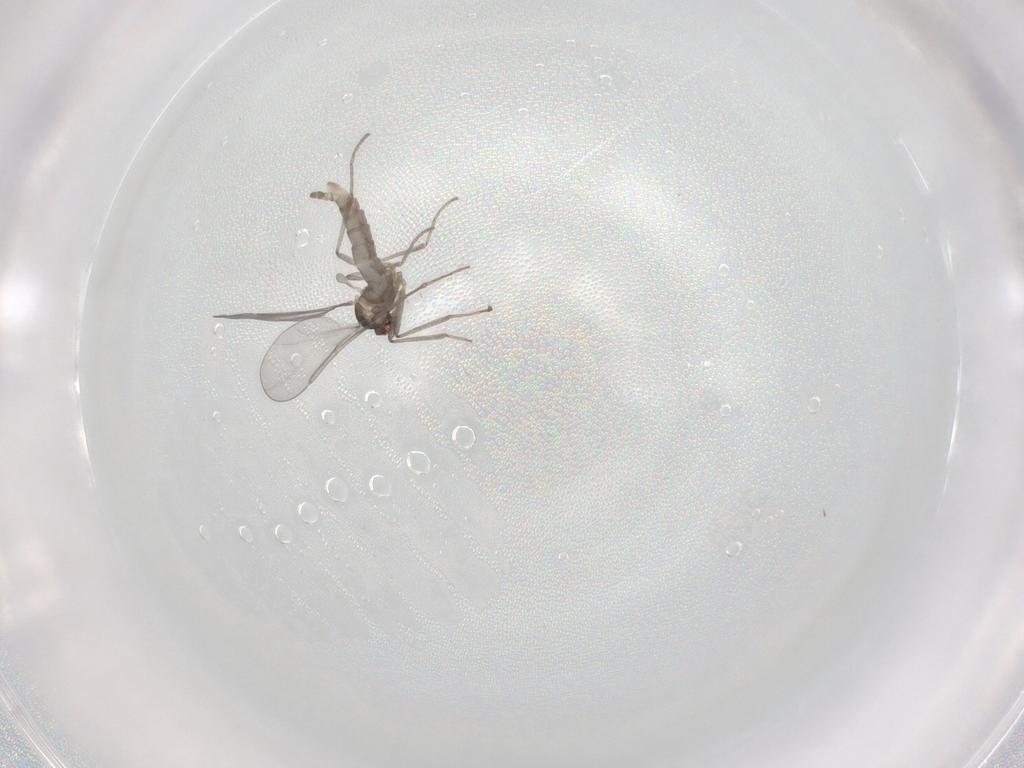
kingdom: Animalia
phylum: Arthropoda
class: Insecta
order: Diptera
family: Cecidomyiidae
